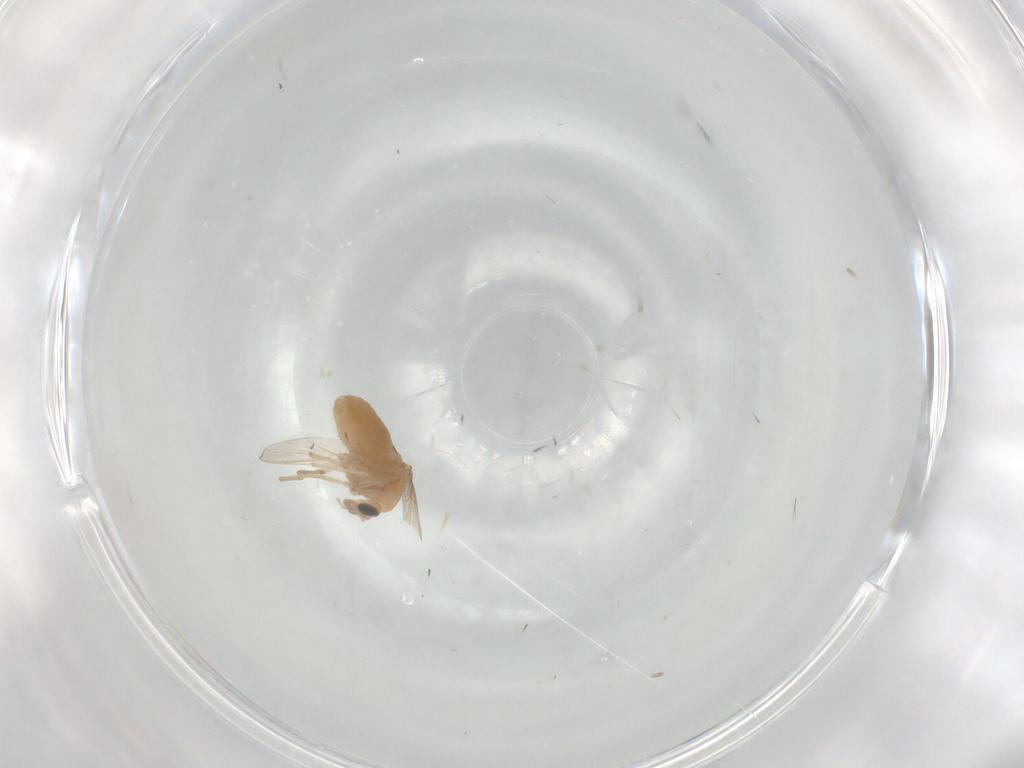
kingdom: Animalia
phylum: Arthropoda
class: Insecta
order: Diptera
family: Chironomidae
